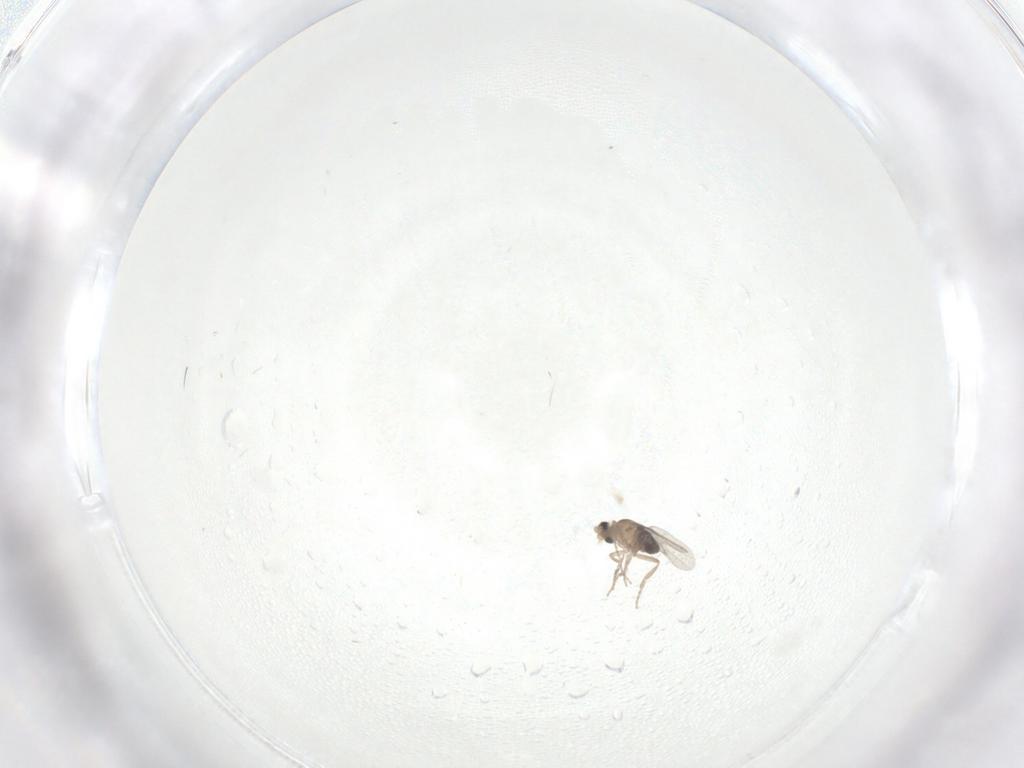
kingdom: Animalia
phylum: Arthropoda
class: Insecta
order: Diptera
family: Phoridae
